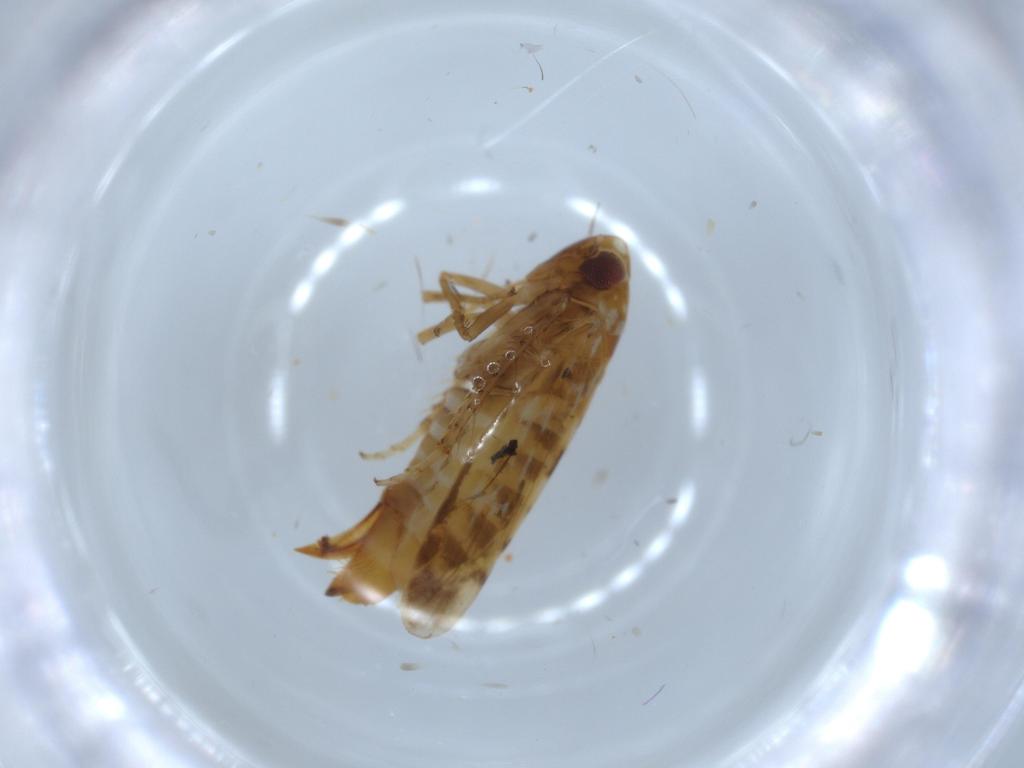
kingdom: Animalia
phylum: Arthropoda
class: Insecta
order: Hemiptera
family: Cicadellidae
